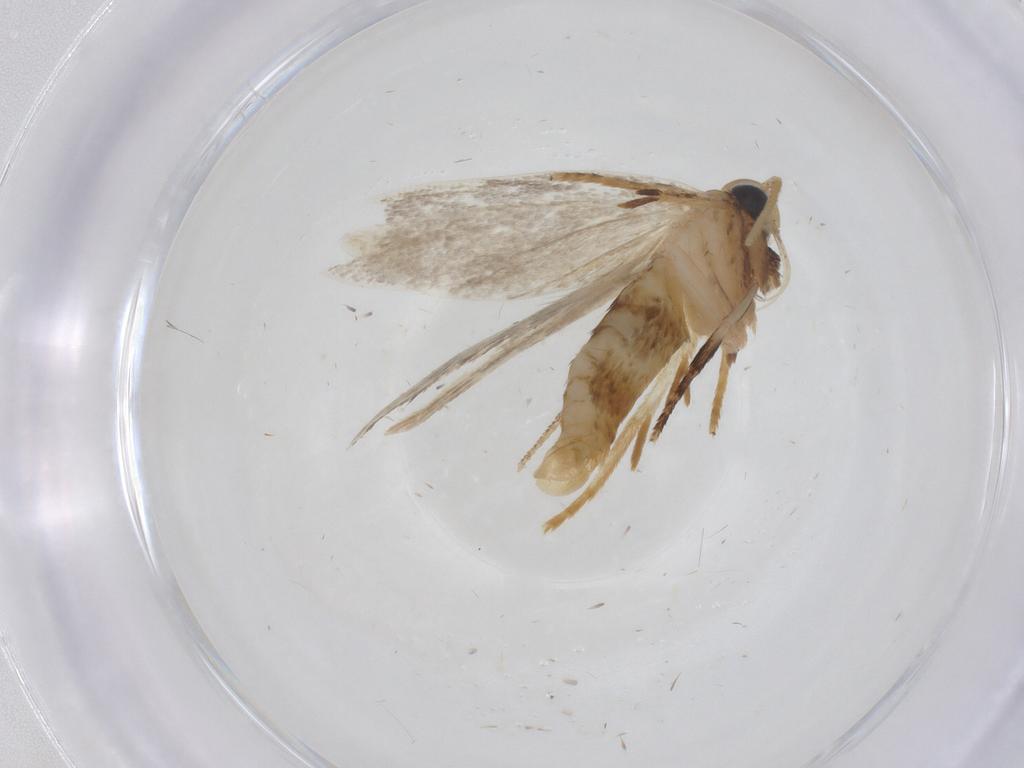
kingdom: Animalia
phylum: Arthropoda
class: Insecta
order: Lepidoptera
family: Oecophoridae
